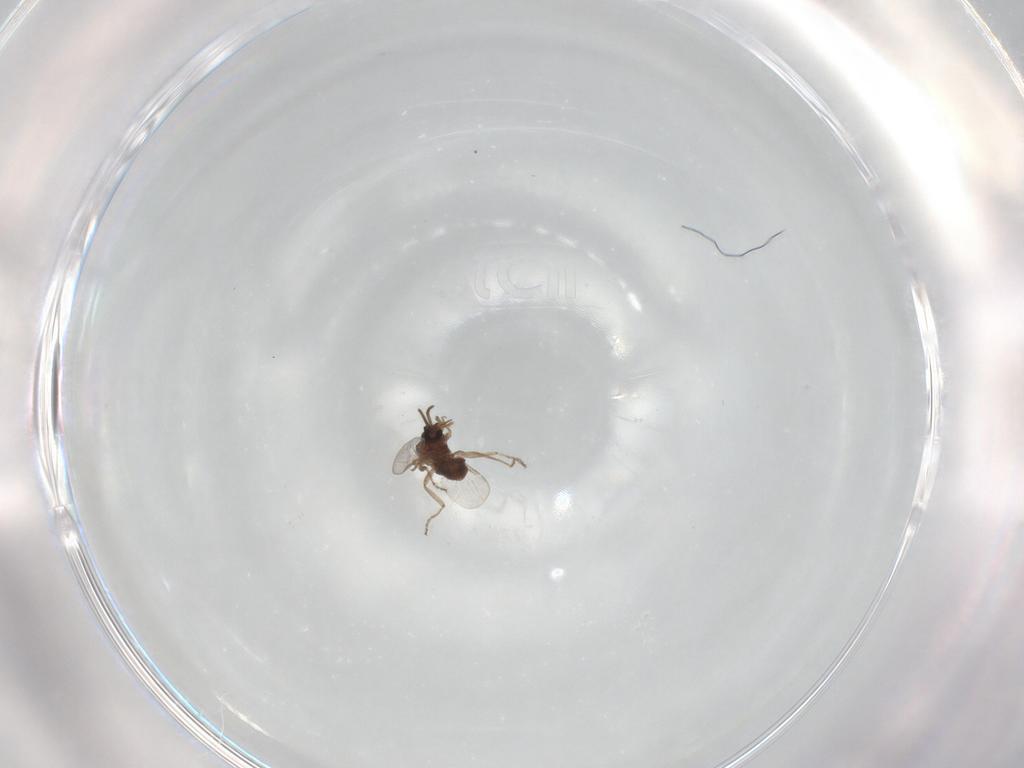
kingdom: Animalia
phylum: Arthropoda
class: Insecta
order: Diptera
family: Ceratopogonidae
